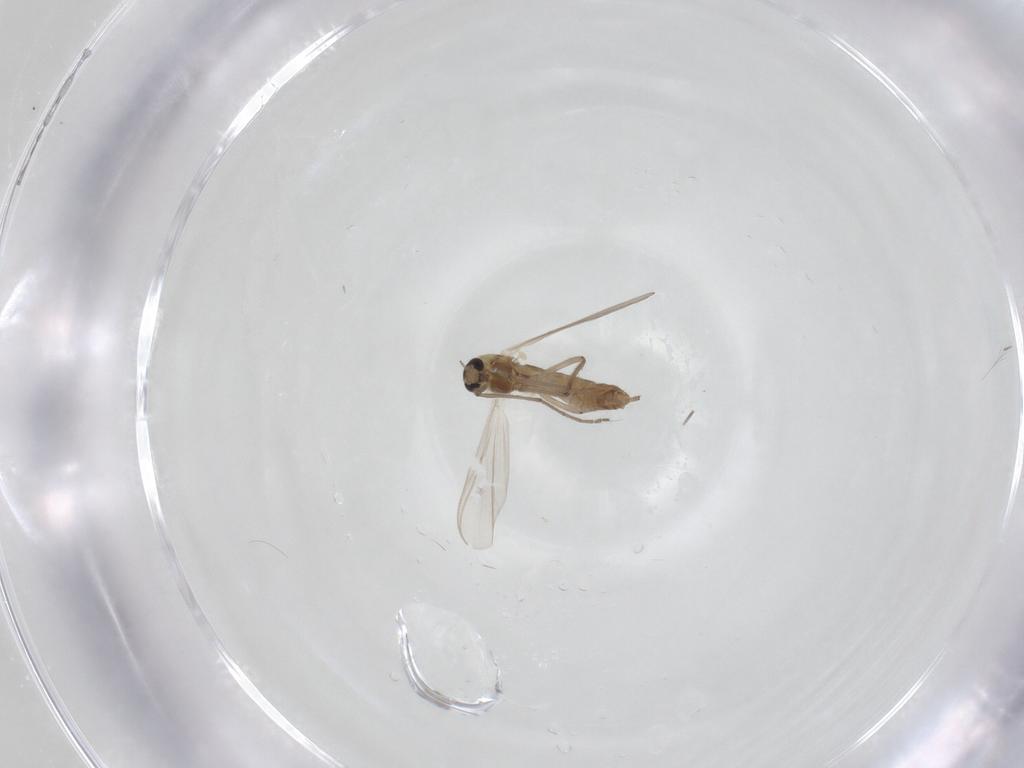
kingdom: Animalia
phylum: Arthropoda
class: Insecta
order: Diptera
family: Chironomidae
